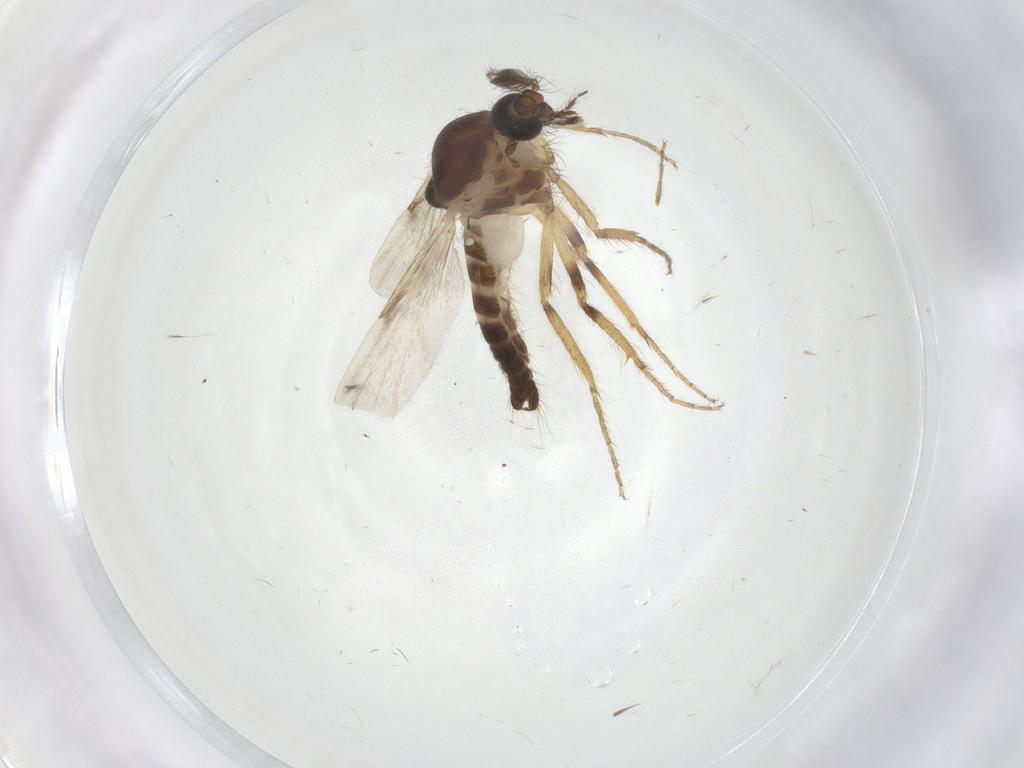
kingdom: Animalia
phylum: Arthropoda
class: Insecta
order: Diptera
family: Ceratopogonidae
